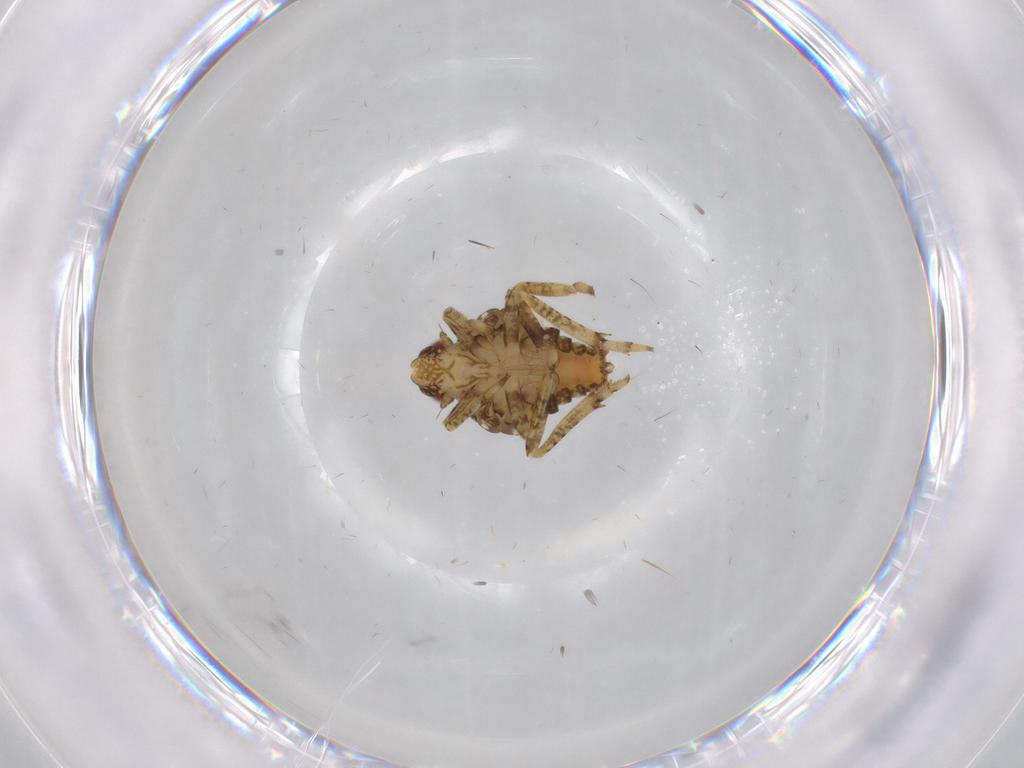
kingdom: Animalia
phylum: Arthropoda
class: Insecta
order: Hemiptera
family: Issidae
